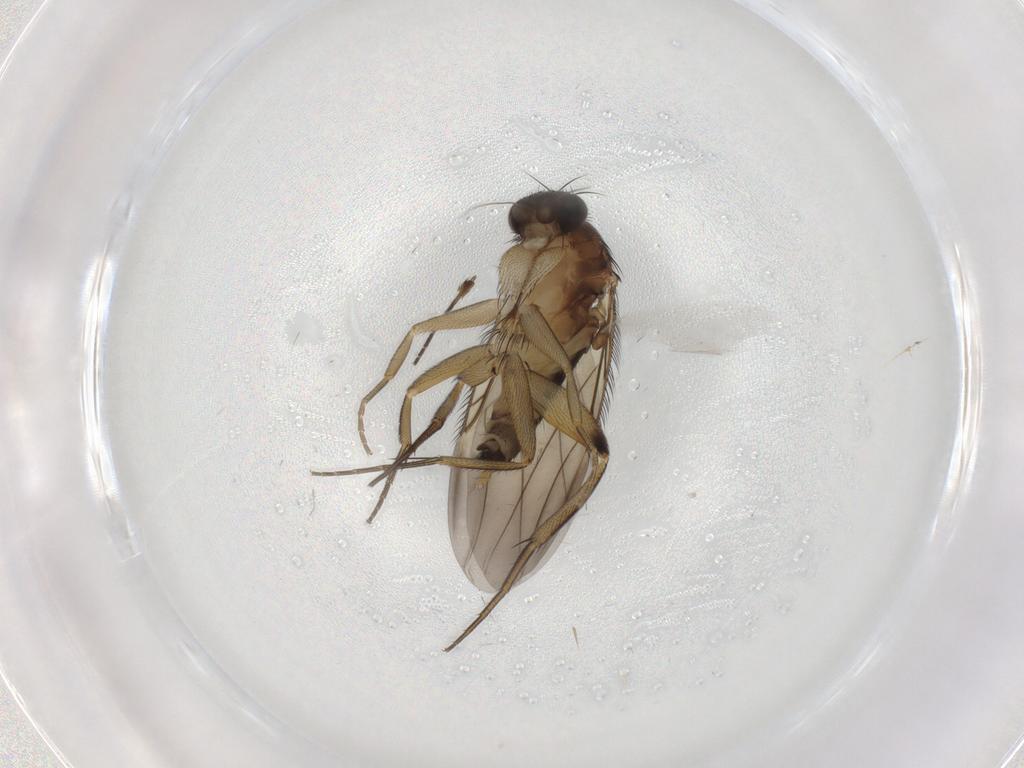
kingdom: Animalia
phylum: Arthropoda
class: Insecta
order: Diptera
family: Phoridae
